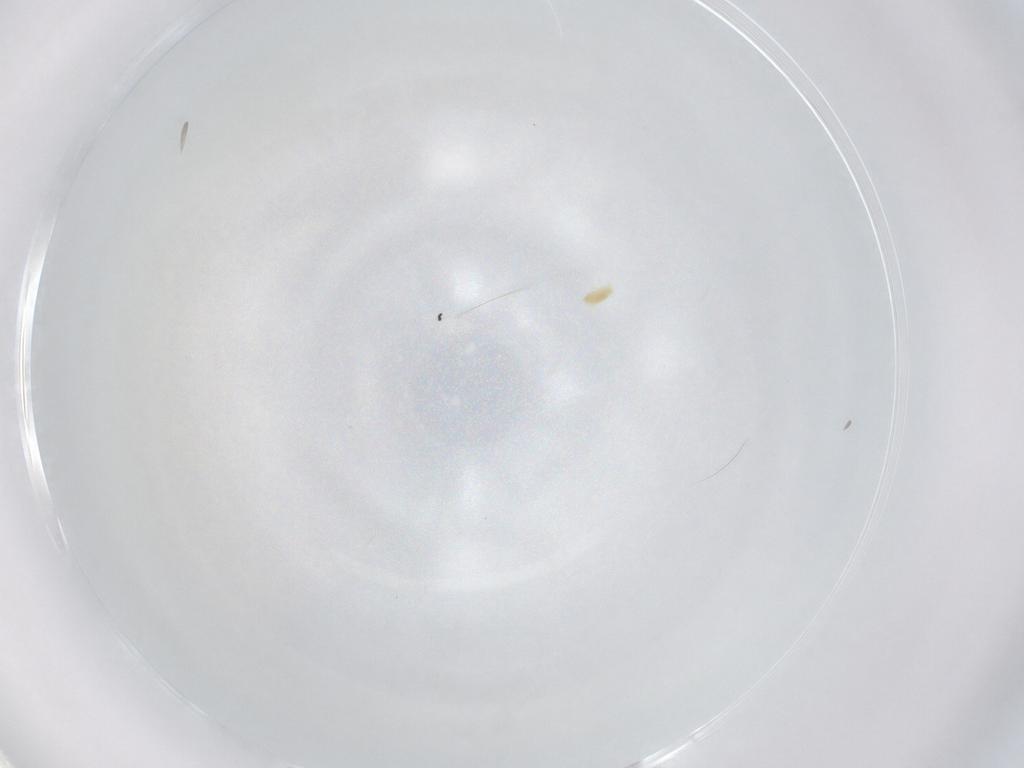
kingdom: Animalia
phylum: Arthropoda
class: Arachnida
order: Trombidiformes
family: Eupodidae
